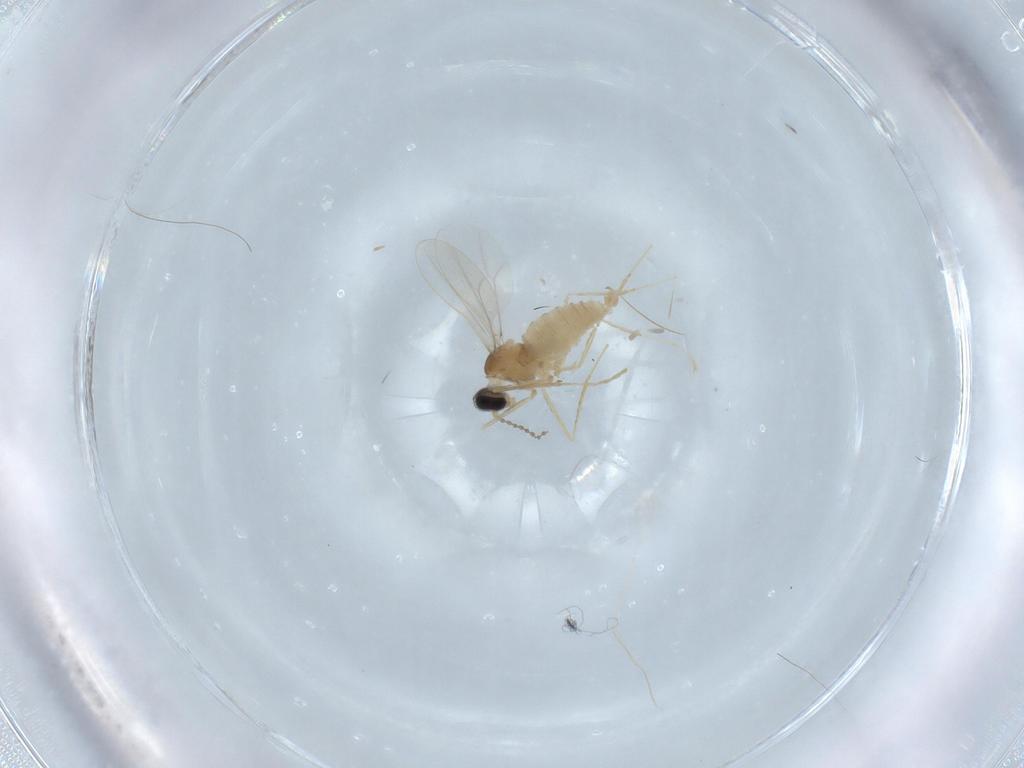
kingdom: Animalia
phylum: Arthropoda
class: Insecta
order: Diptera
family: Cecidomyiidae
